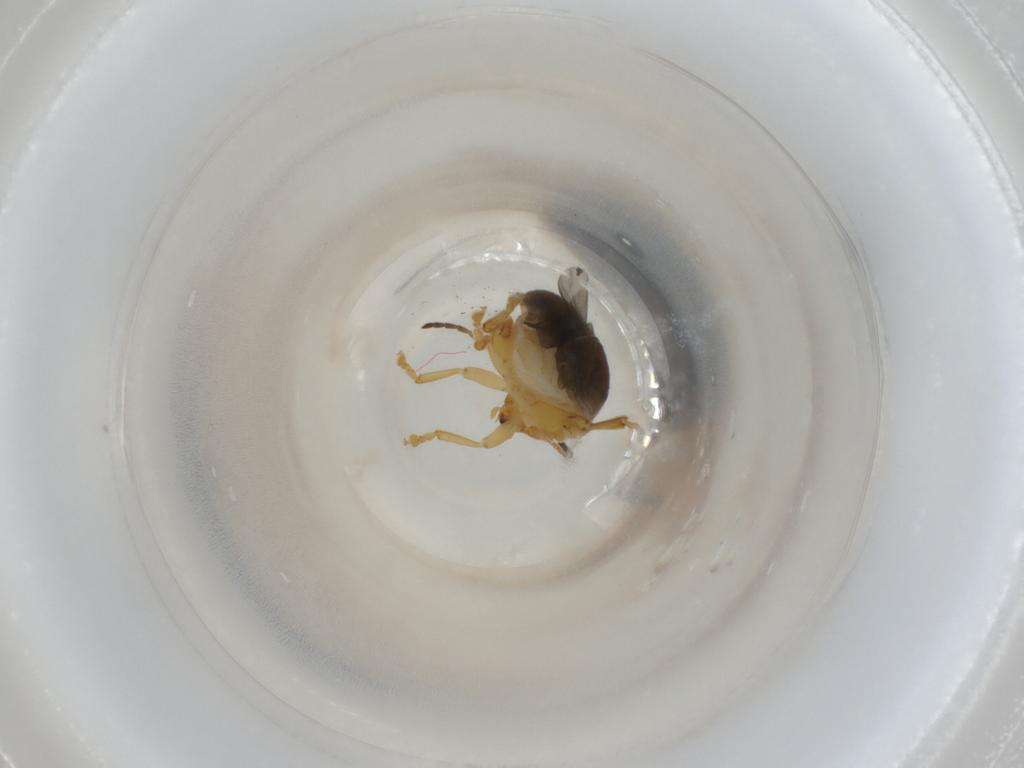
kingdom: Animalia
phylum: Arthropoda
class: Insecta
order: Coleoptera
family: Chrysomelidae
